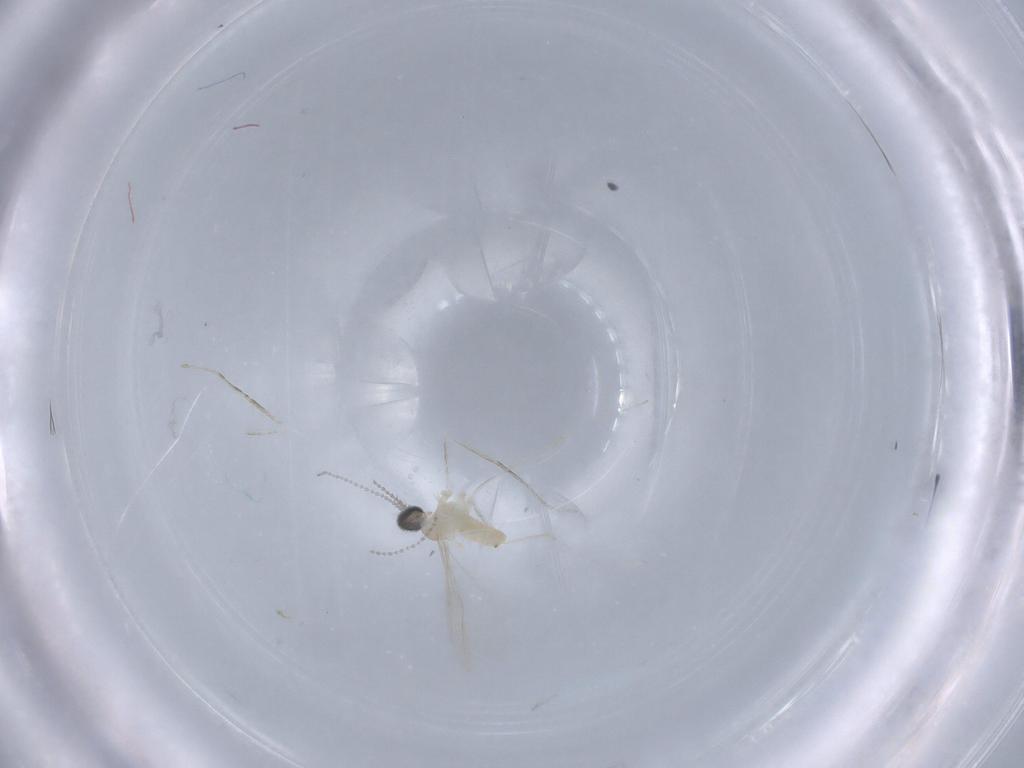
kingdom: Animalia
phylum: Arthropoda
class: Insecta
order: Diptera
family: Cecidomyiidae
